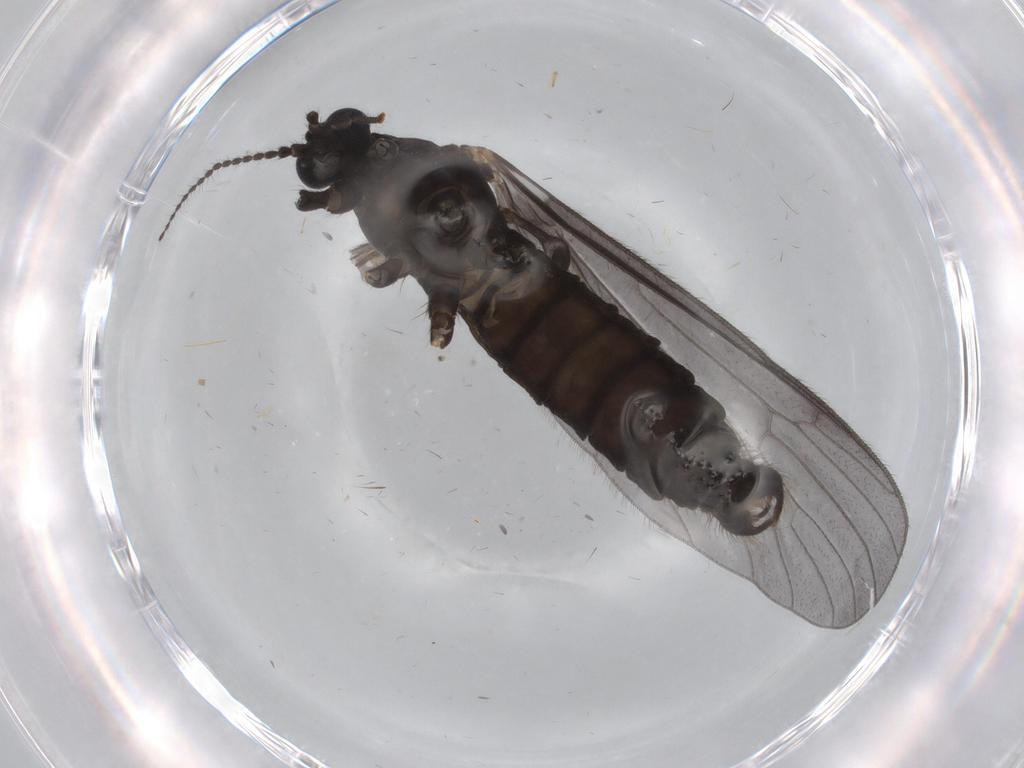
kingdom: Animalia
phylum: Arthropoda
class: Insecta
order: Diptera
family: Limoniidae
